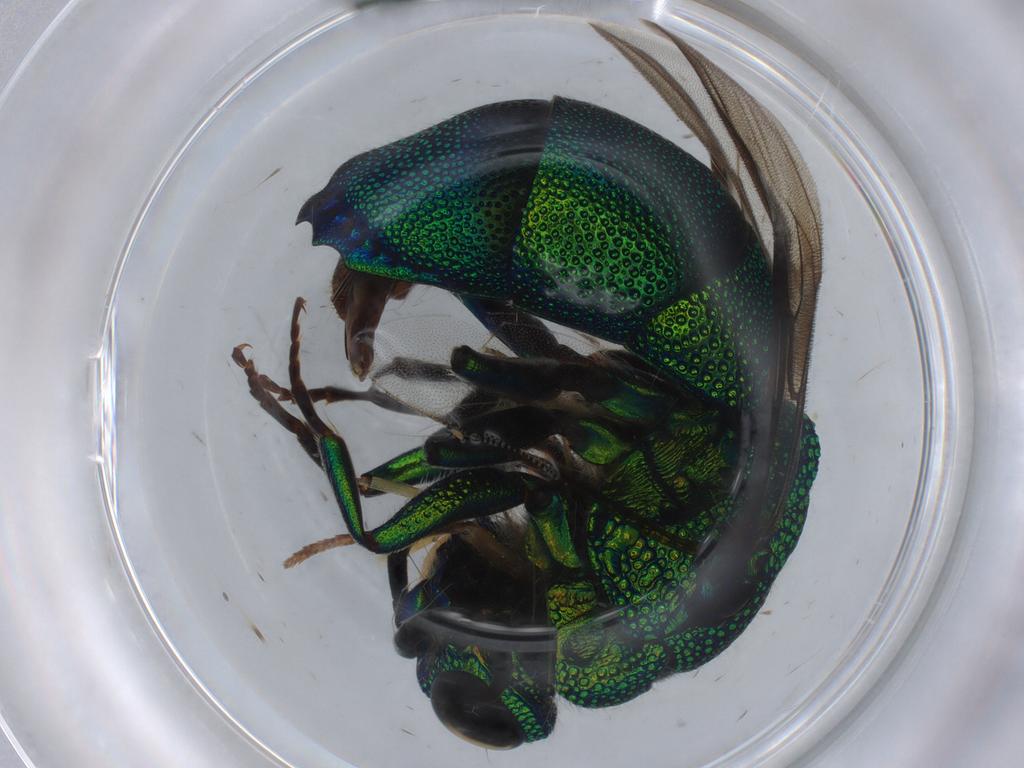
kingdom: Animalia
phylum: Arthropoda
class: Insecta
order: Hymenoptera
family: Chrysididae
